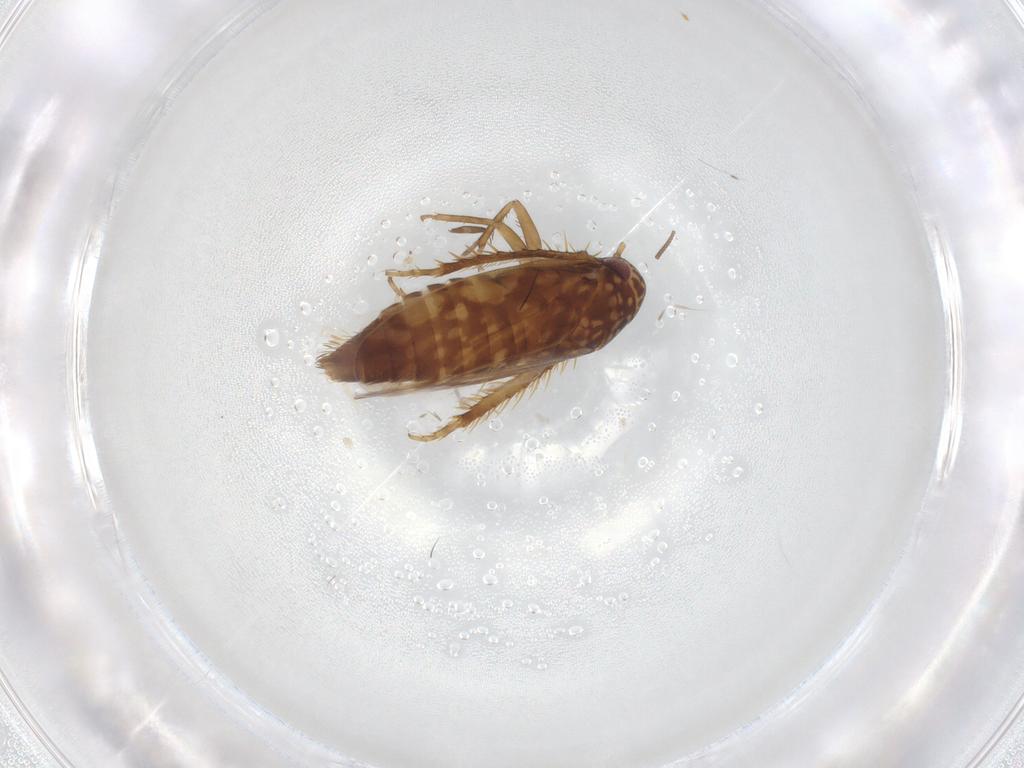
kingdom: Animalia
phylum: Arthropoda
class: Insecta
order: Hemiptera
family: Cicadellidae
